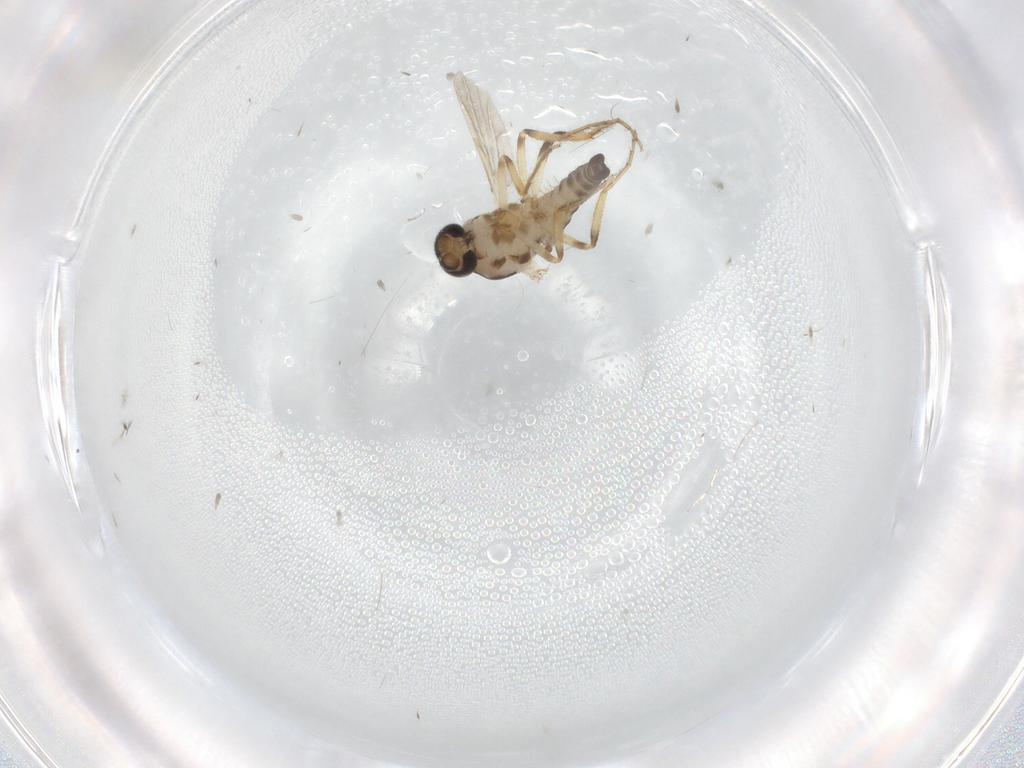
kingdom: Animalia
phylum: Arthropoda
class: Insecta
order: Diptera
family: Ceratopogonidae
